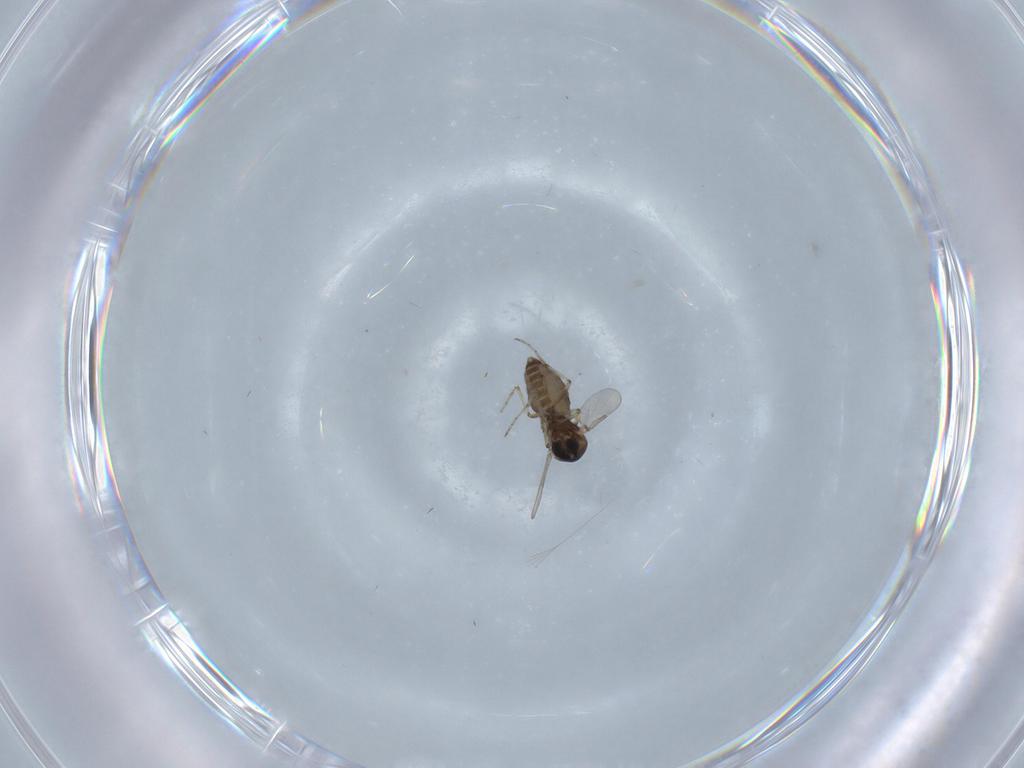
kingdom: Animalia
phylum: Arthropoda
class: Insecta
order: Diptera
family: Ceratopogonidae
